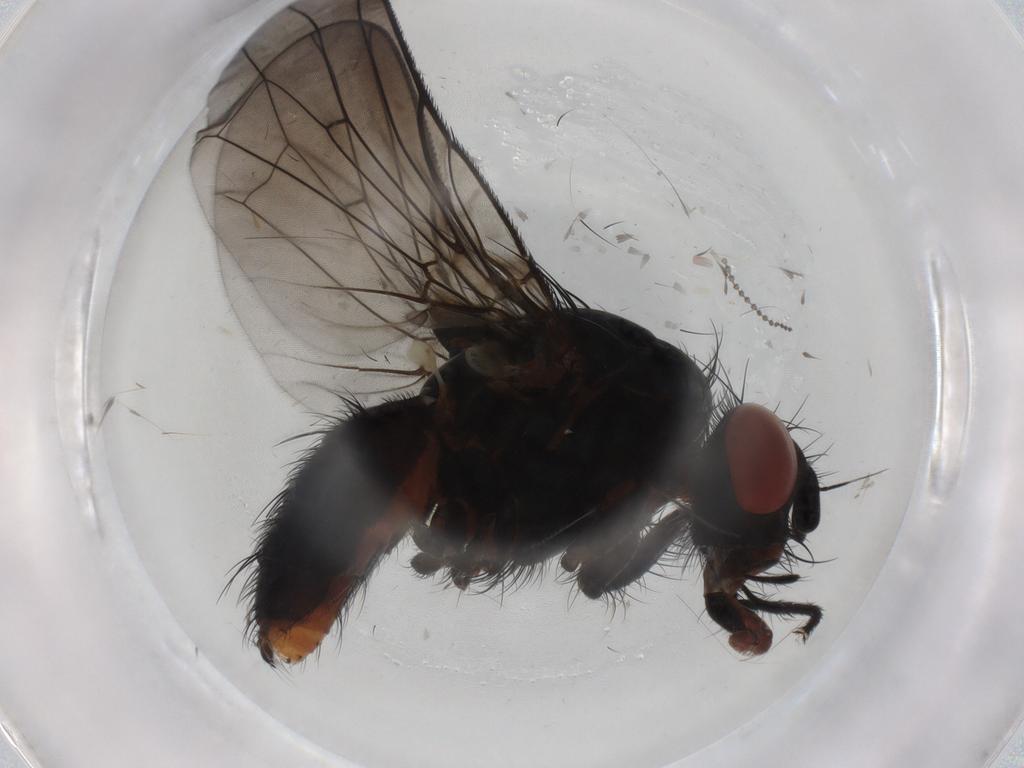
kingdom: Animalia
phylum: Arthropoda
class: Insecta
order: Diptera
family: Anthomyiidae
